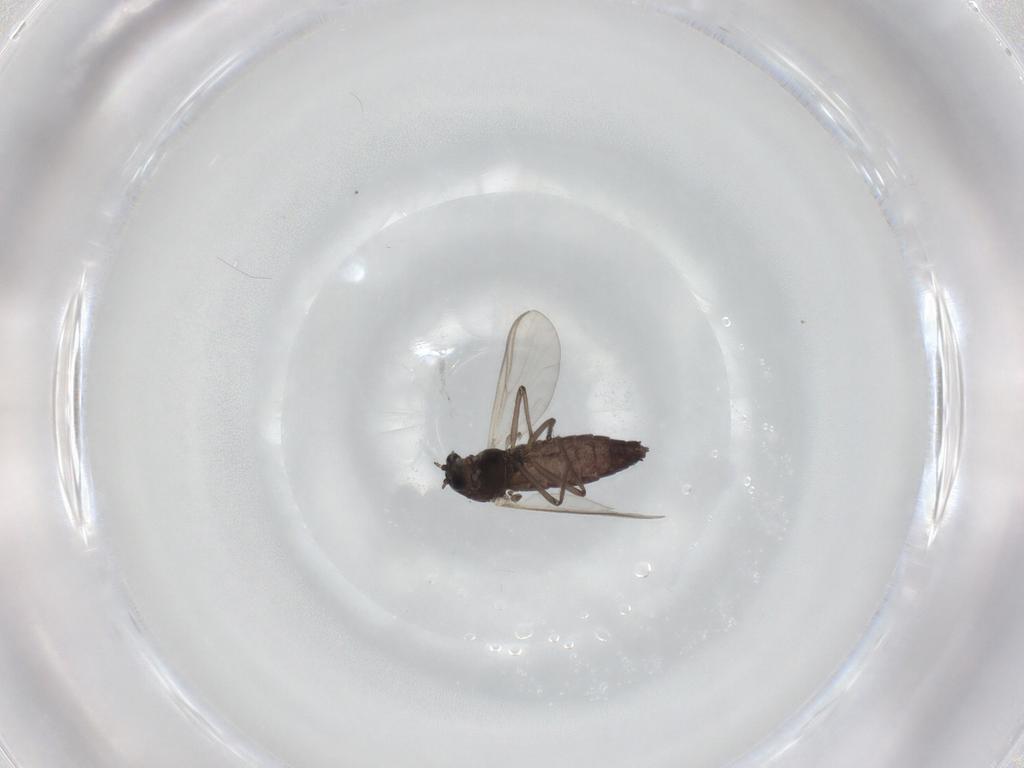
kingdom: Animalia
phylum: Arthropoda
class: Insecta
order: Diptera
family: Chironomidae
